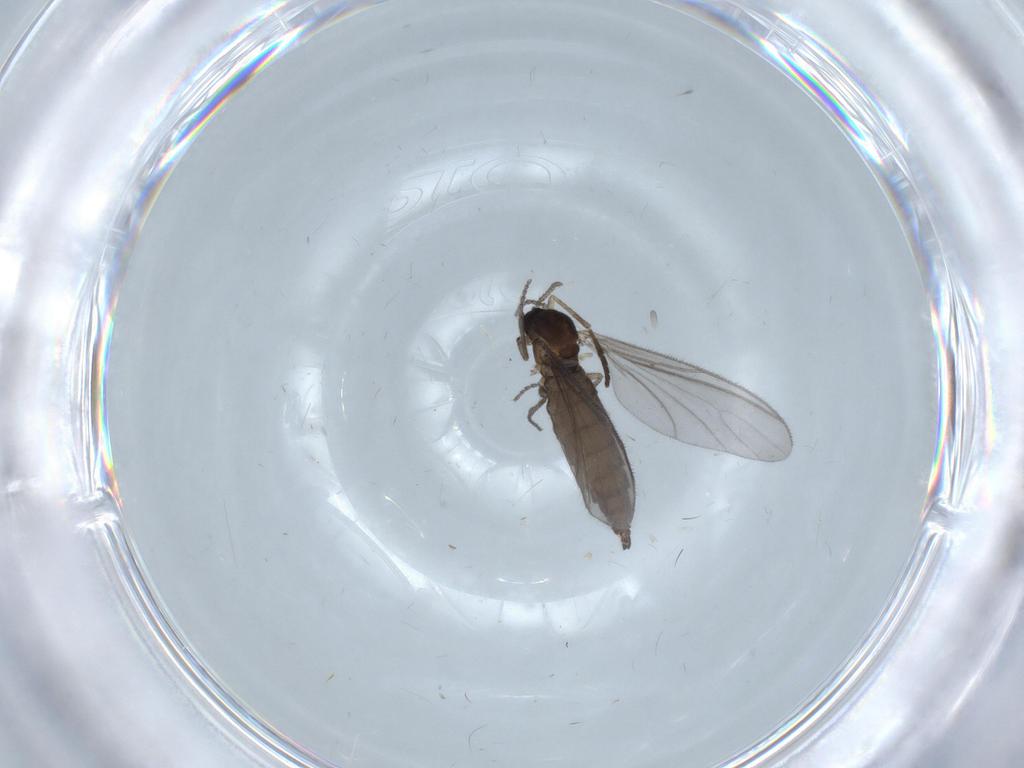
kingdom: Animalia
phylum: Arthropoda
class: Insecta
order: Diptera
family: Sciaridae
